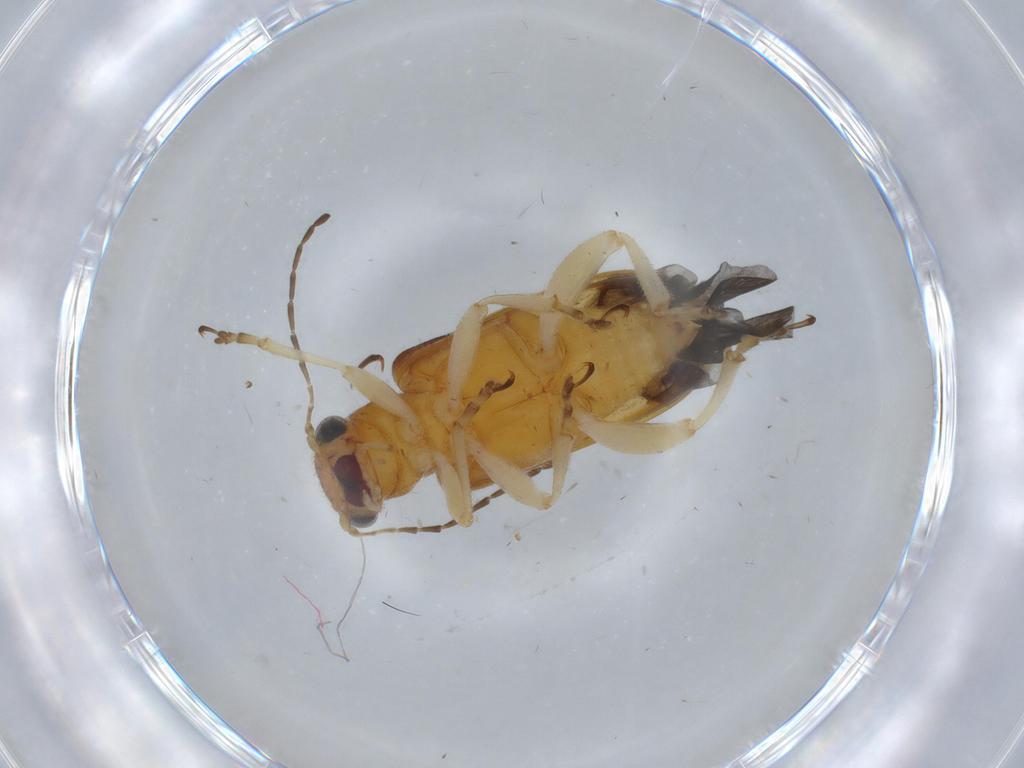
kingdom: Animalia
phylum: Arthropoda
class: Insecta
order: Coleoptera
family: Chrysomelidae
